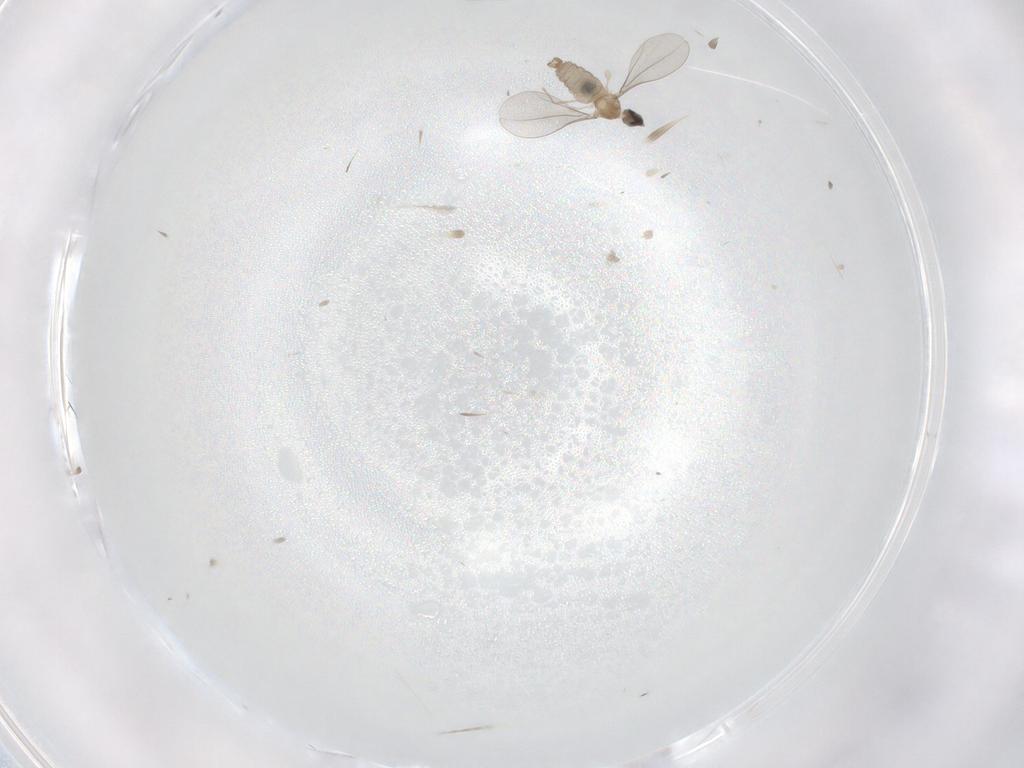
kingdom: Animalia
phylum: Arthropoda
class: Insecta
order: Diptera
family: Cecidomyiidae
